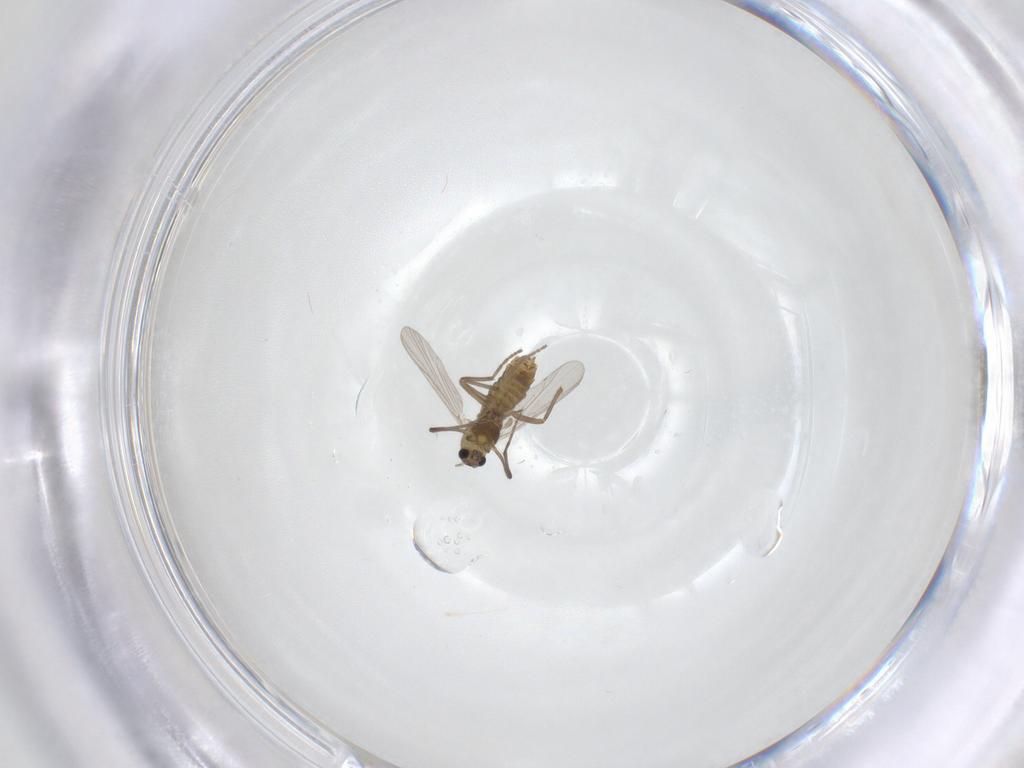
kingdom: Animalia
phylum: Arthropoda
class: Insecta
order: Diptera
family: Chironomidae
